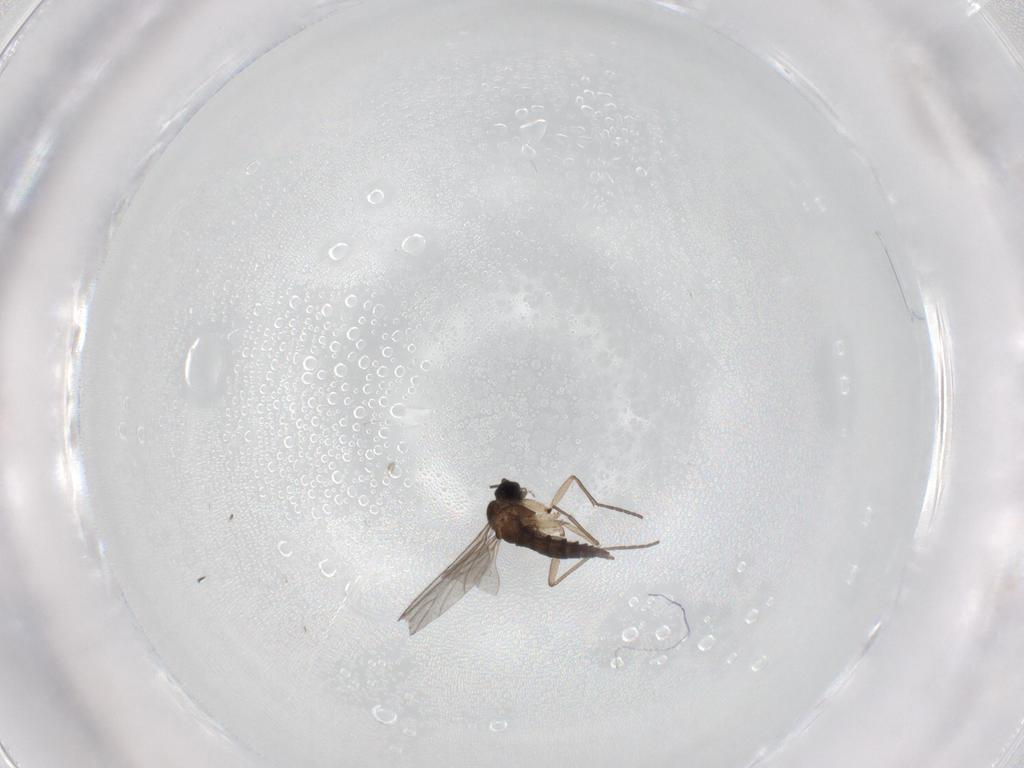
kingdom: Animalia
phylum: Arthropoda
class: Insecta
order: Diptera
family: Sciaridae
